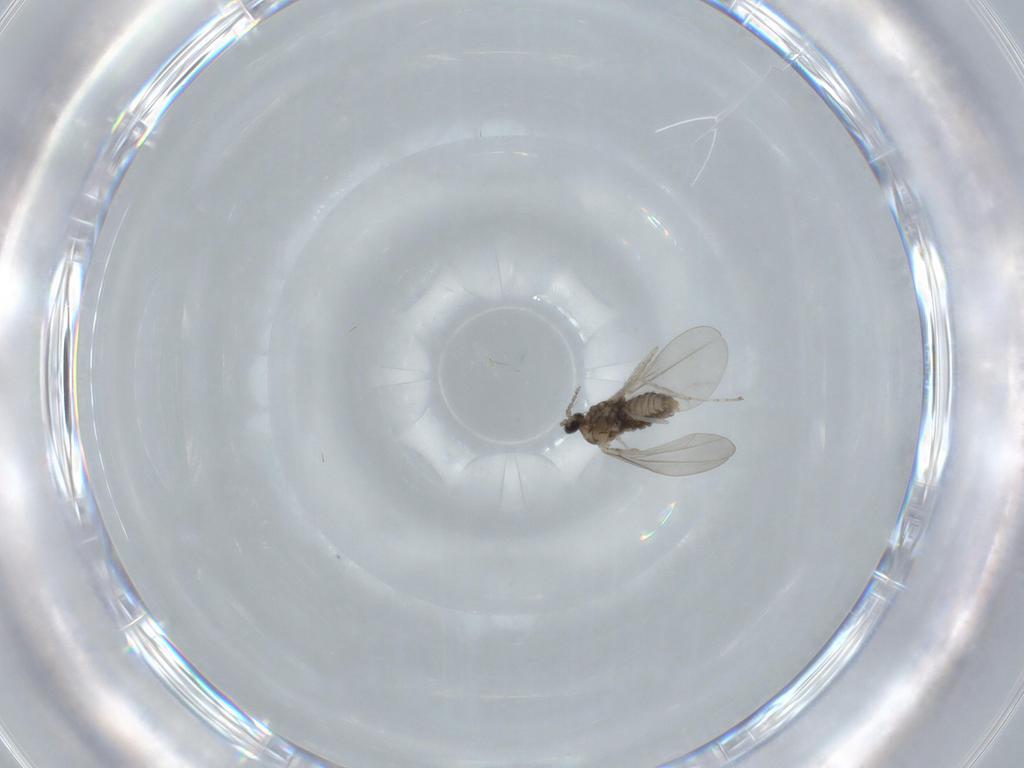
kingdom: Animalia
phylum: Arthropoda
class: Insecta
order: Diptera
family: Cecidomyiidae
